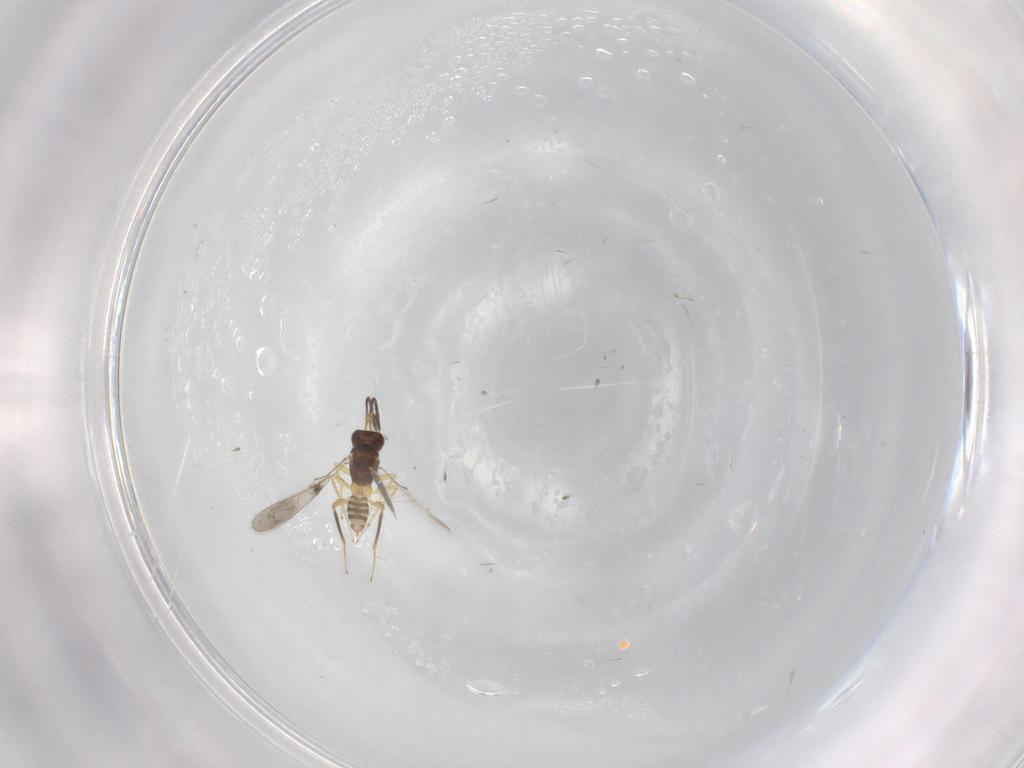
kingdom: Animalia
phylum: Arthropoda
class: Insecta
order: Hymenoptera
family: Mymaridae
